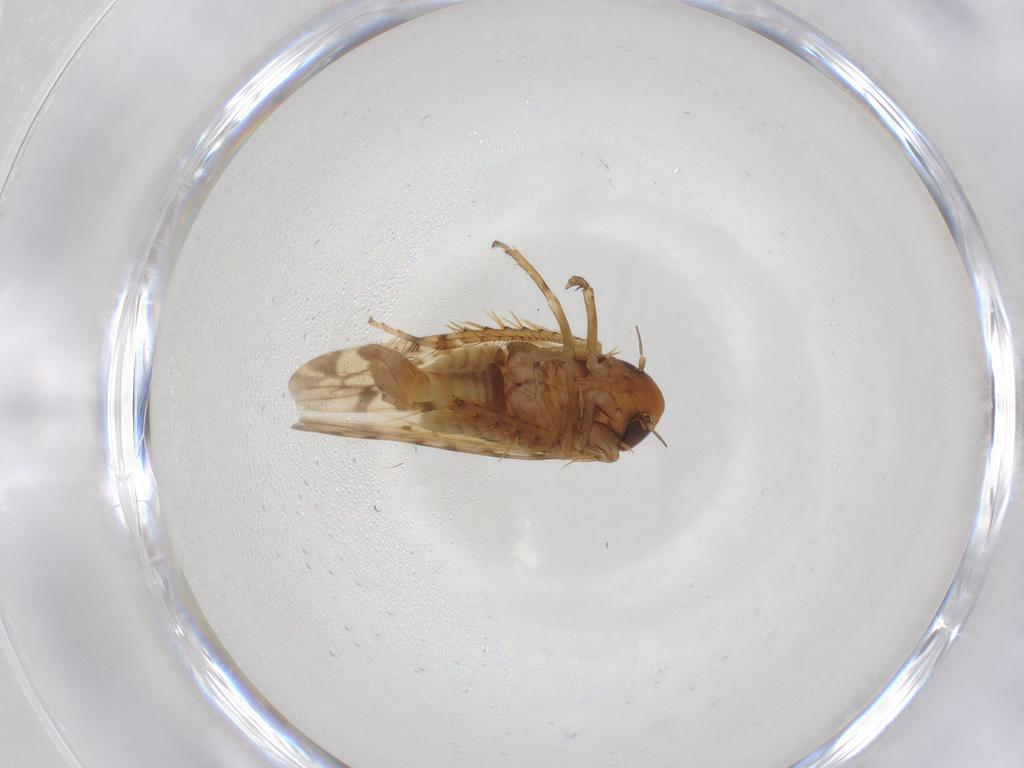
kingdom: Animalia
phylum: Arthropoda
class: Insecta
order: Hemiptera
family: Cicadellidae
